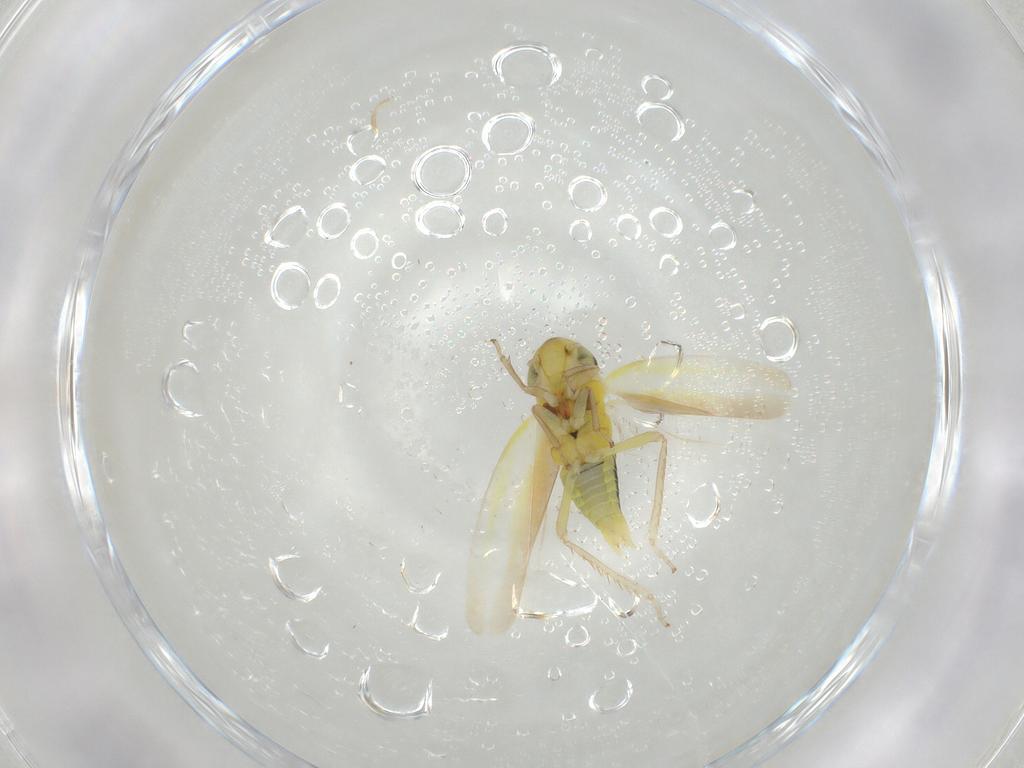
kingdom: Animalia
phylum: Arthropoda
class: Insecta
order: Hemiptera
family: Cicadellidae
